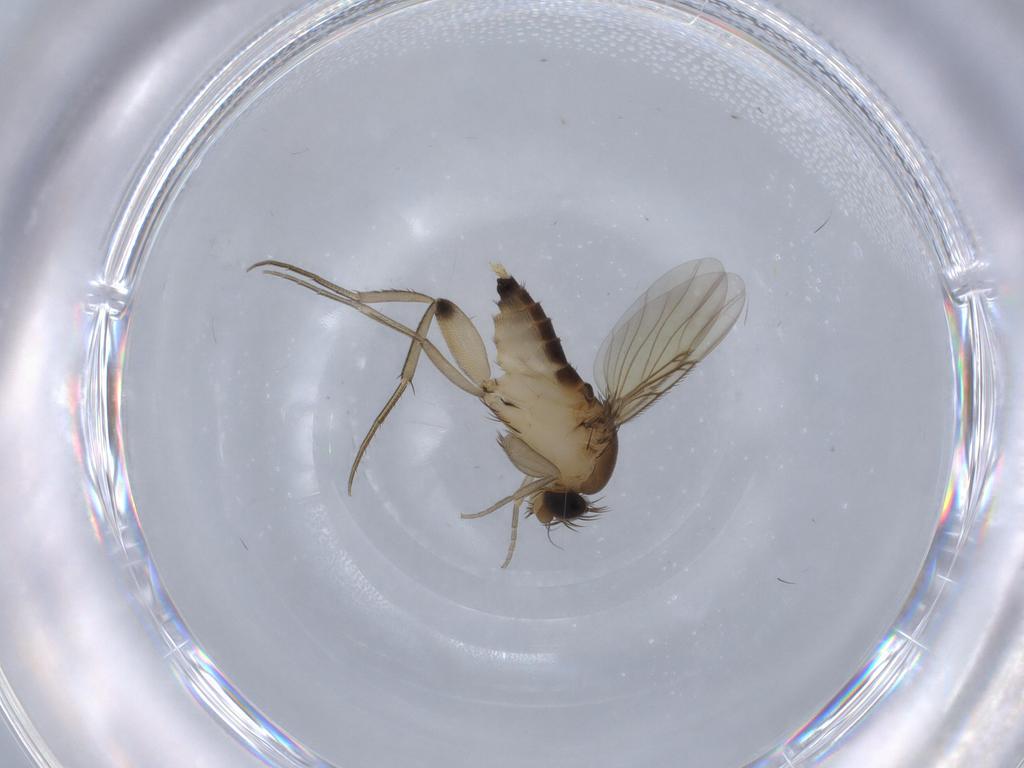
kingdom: Animalia
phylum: Arthropoda
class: Insecta
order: Diptera
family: Phoridae
